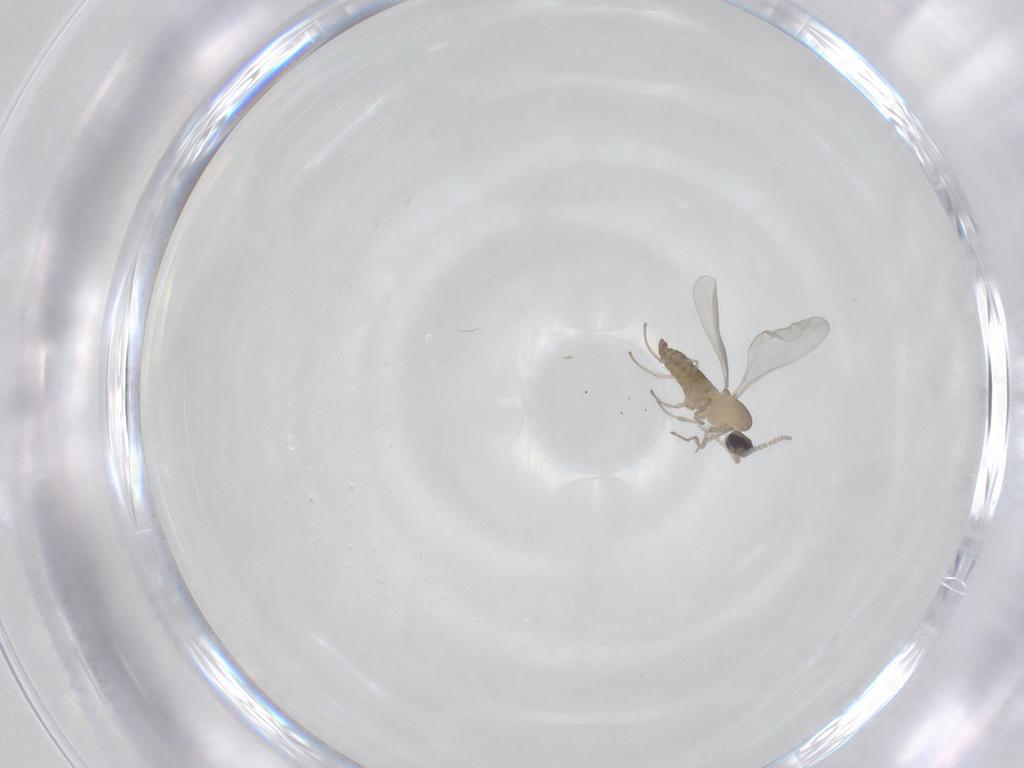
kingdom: Animalia
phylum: Arthropoda
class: Insecta
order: Diptera
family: Cecidomyiidae
